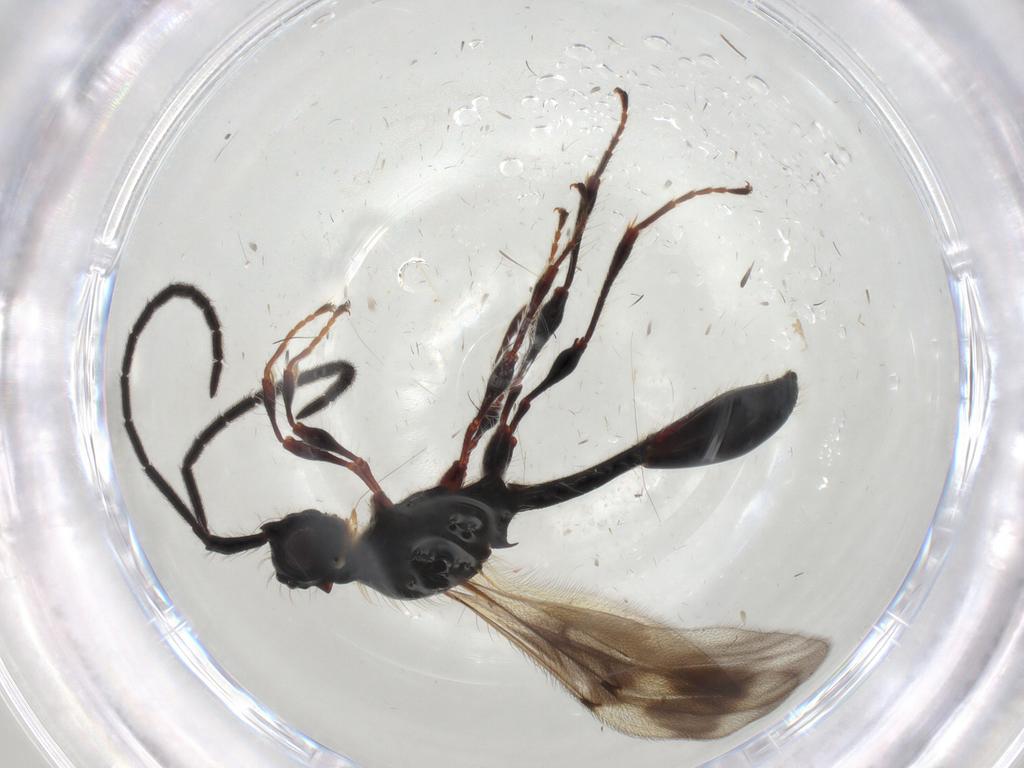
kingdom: Animalia
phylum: Arthropoda
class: Insecta
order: Hymenoptera
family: Diapriidae
